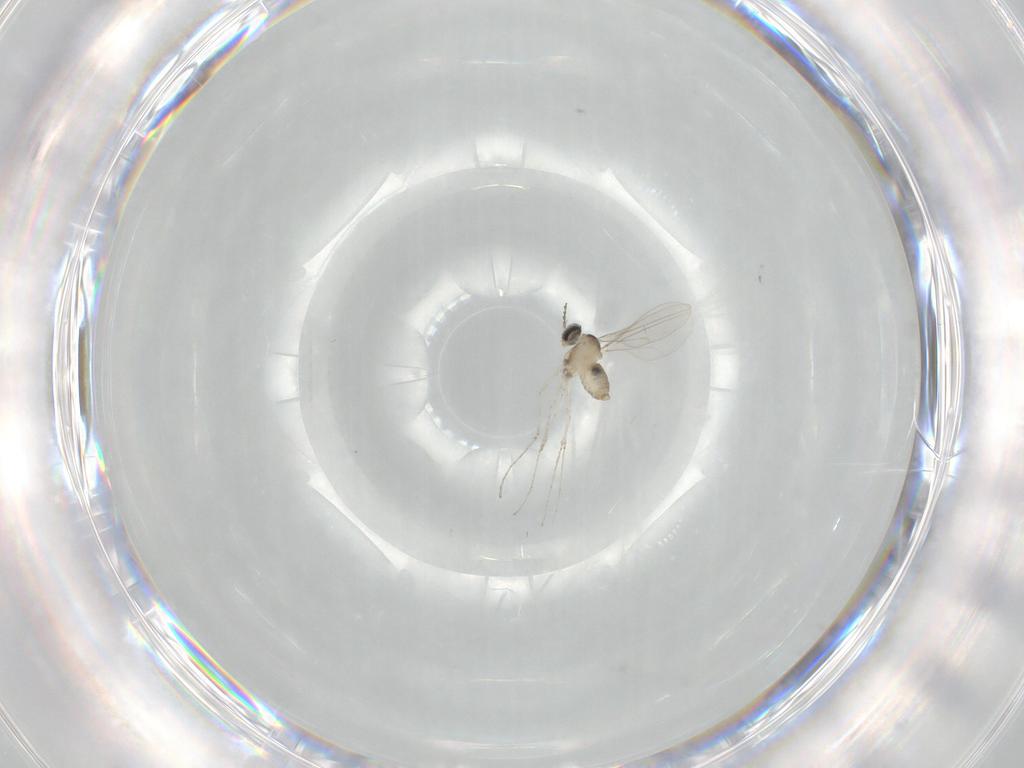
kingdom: Animalia
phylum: Arthropoda
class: Insecta
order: Diptera
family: Cecidomyiidae
